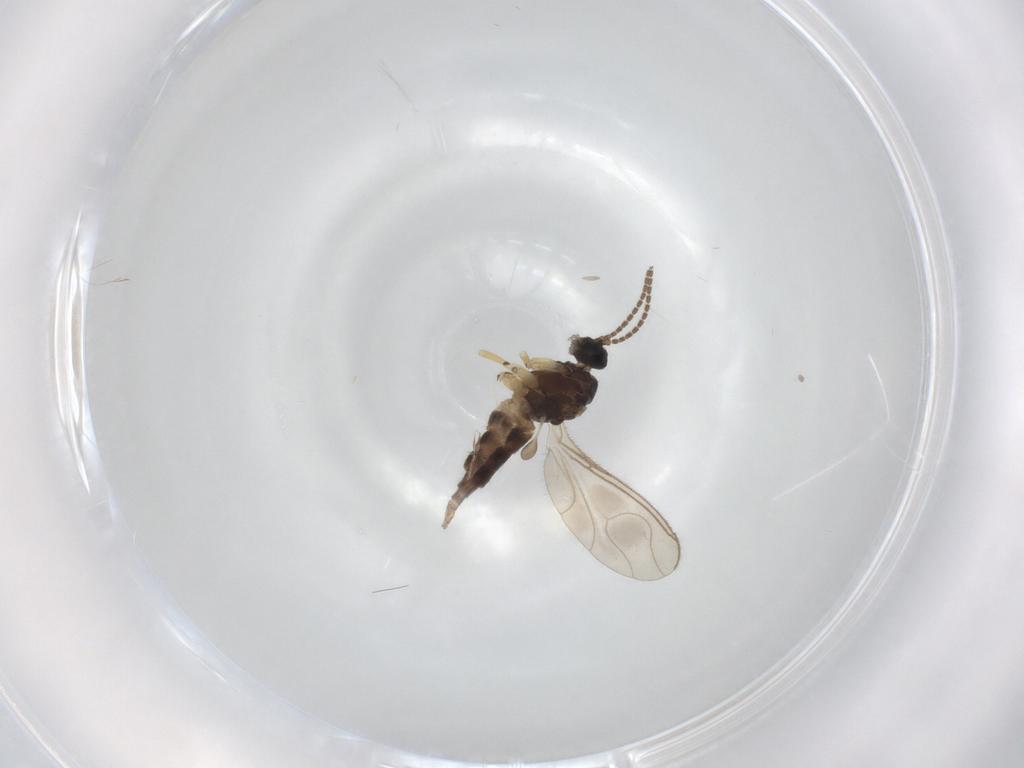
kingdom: Animalia
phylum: Arthropoda
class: Insecta
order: Diptera
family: Sciaridae
